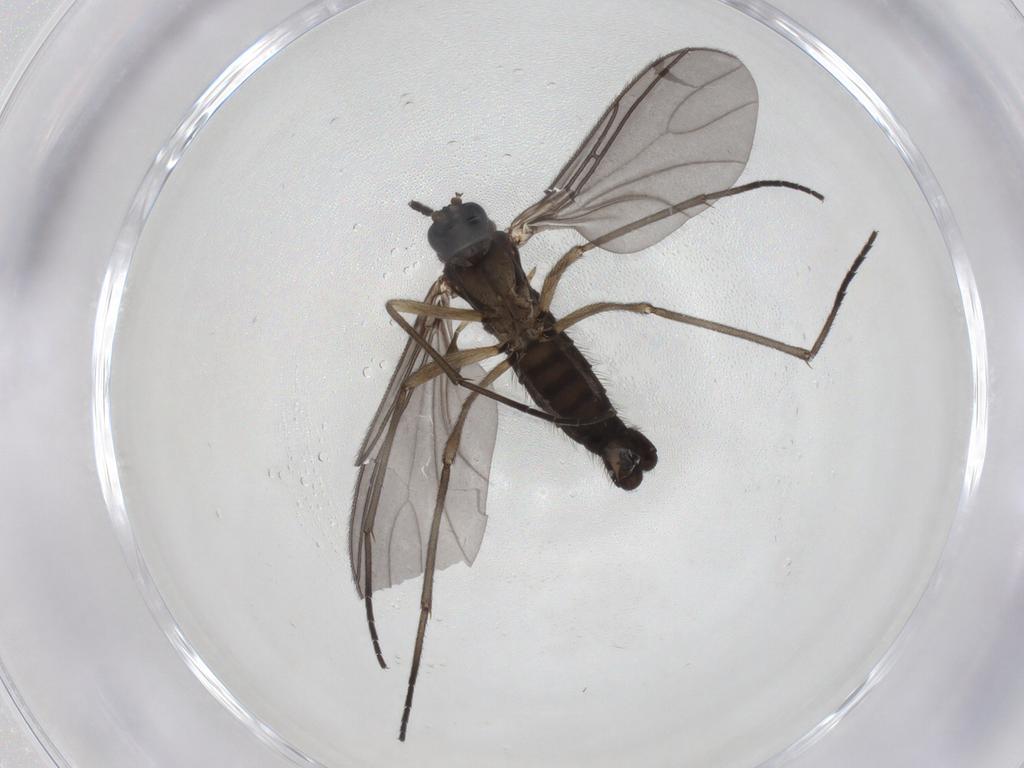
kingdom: Animalia
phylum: Arthropoda
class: Insecta
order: Diptera
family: Sciaridae
